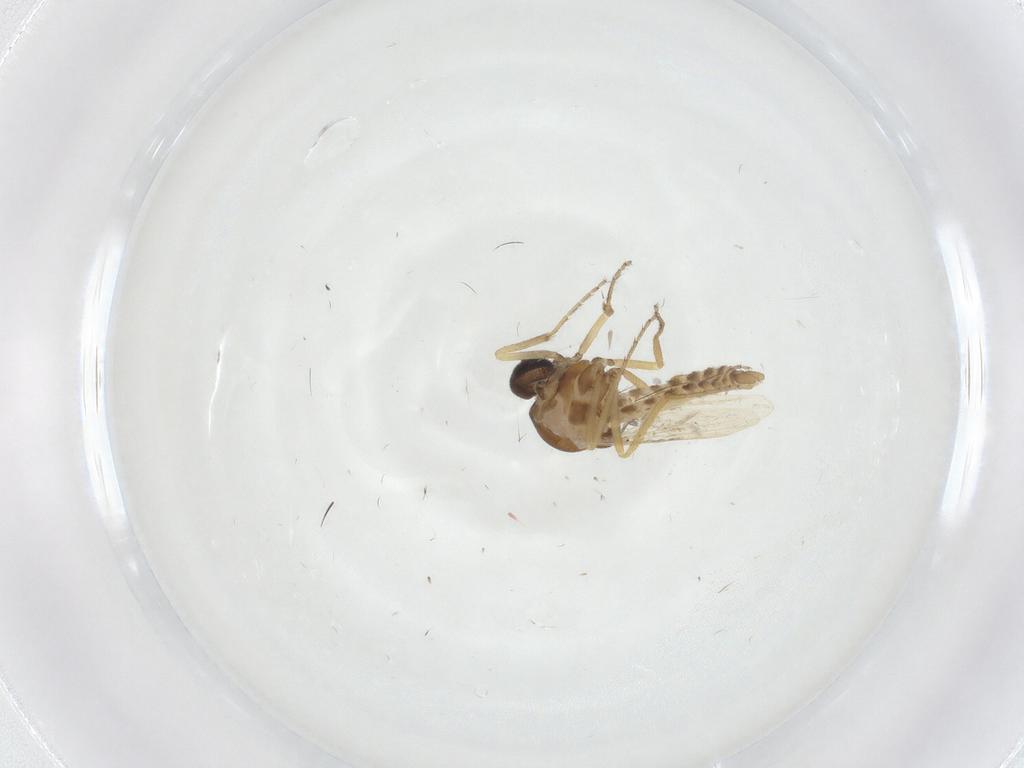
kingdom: Animalia
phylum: Arthropoda
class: Insecta
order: Diptera
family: Ceratopogonidae
